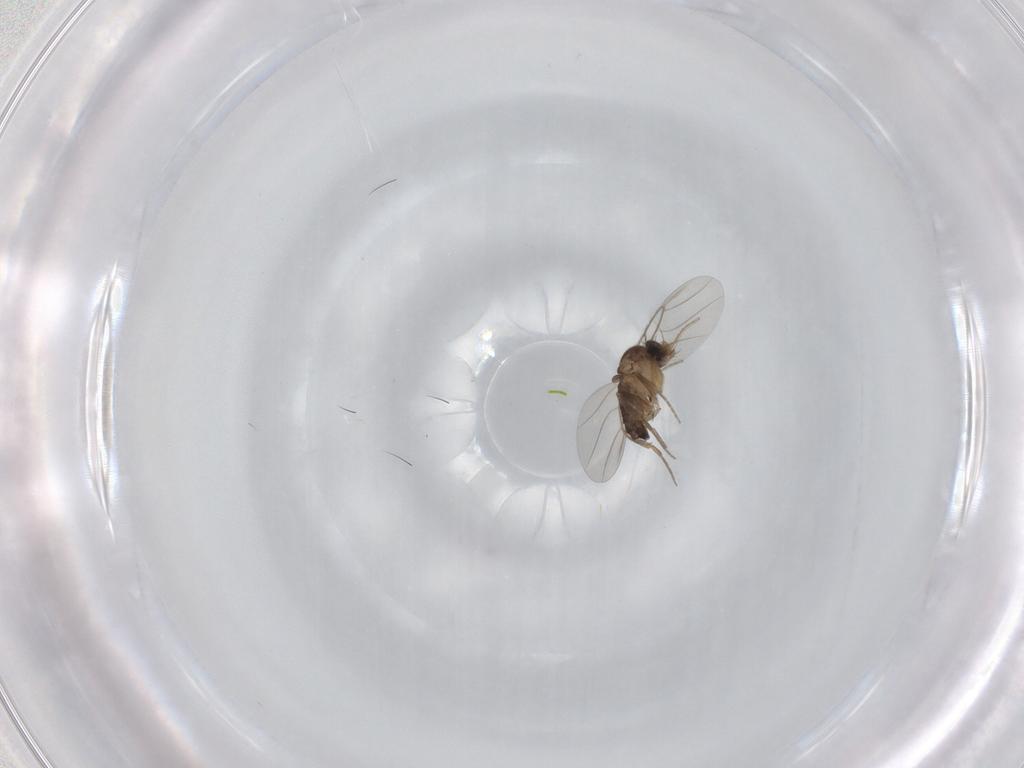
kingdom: Animalia
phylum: Arthropoda
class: Insecta
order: Diptera
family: Phoridae
